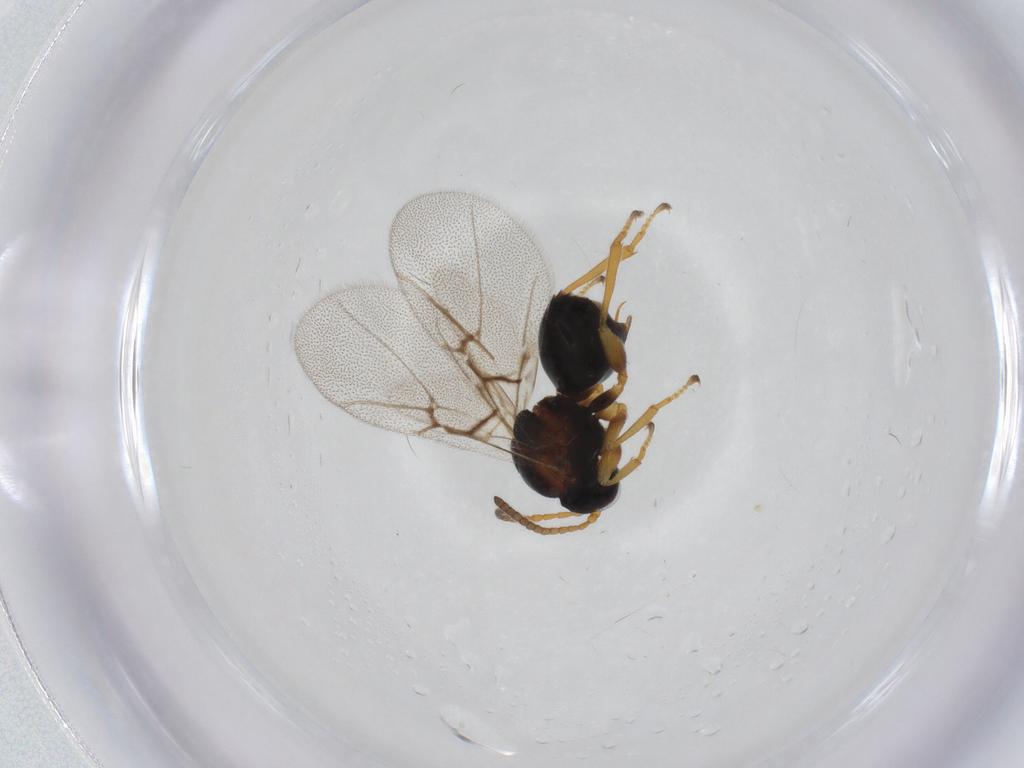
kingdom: Animalia
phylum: Arthropoda
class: Insecta
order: Hymenoptera
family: Cynipidae
